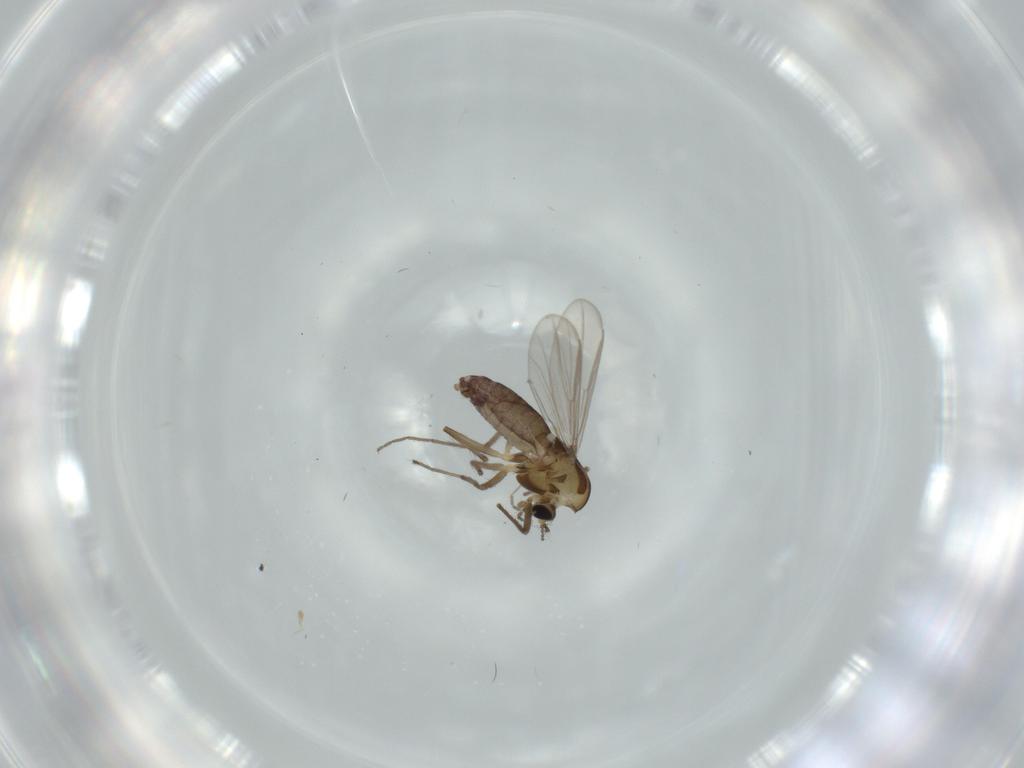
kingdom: Animalia
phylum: Arthropoda
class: Insecta
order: Diptera
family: Chironomidae
